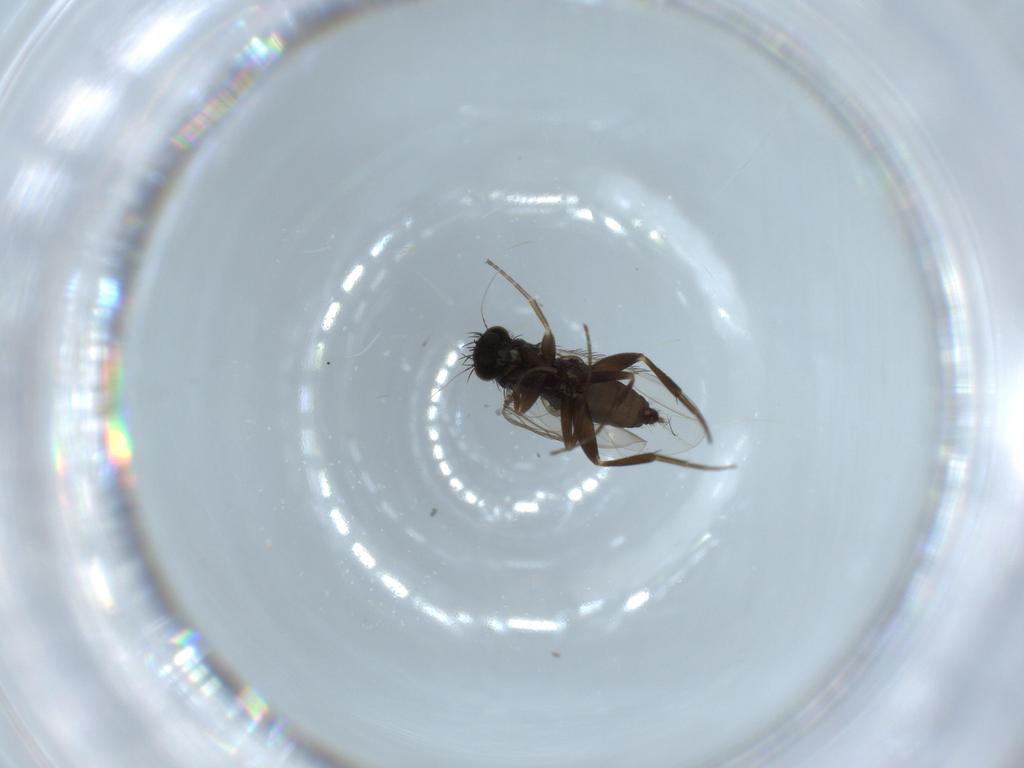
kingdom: Animalia
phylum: Arthropoda
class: Insecta
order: Diptera
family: Phoridae
